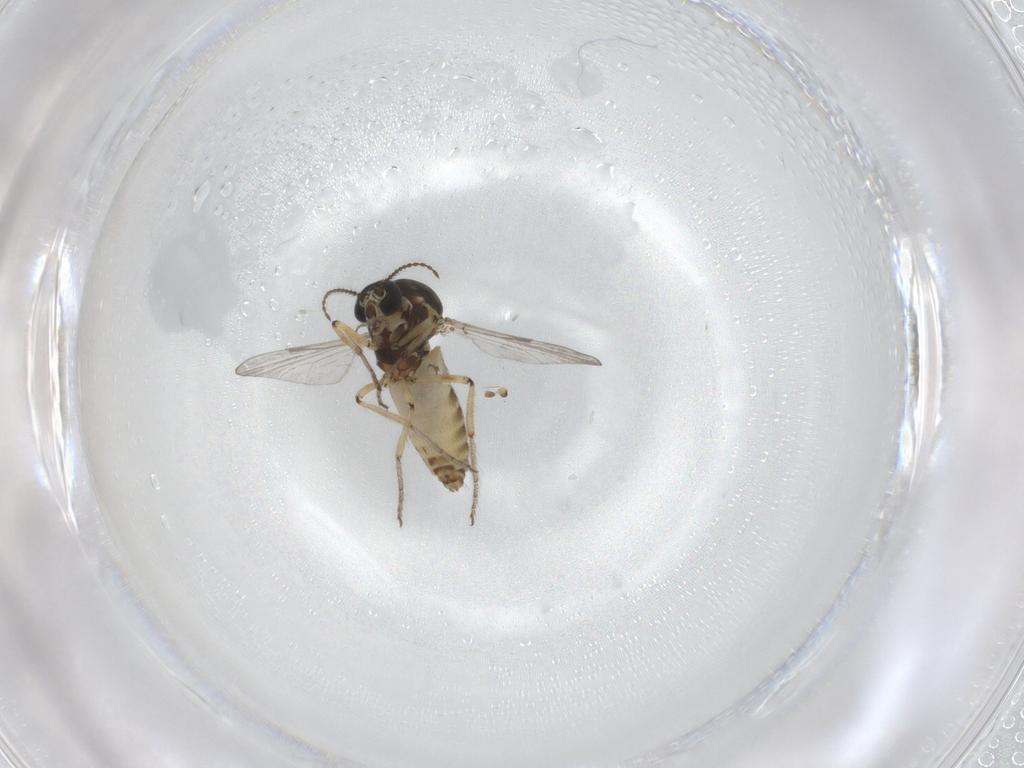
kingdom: Animalia
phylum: Arthropoda
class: Insecta
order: Diptera
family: Ceratopogonidae
